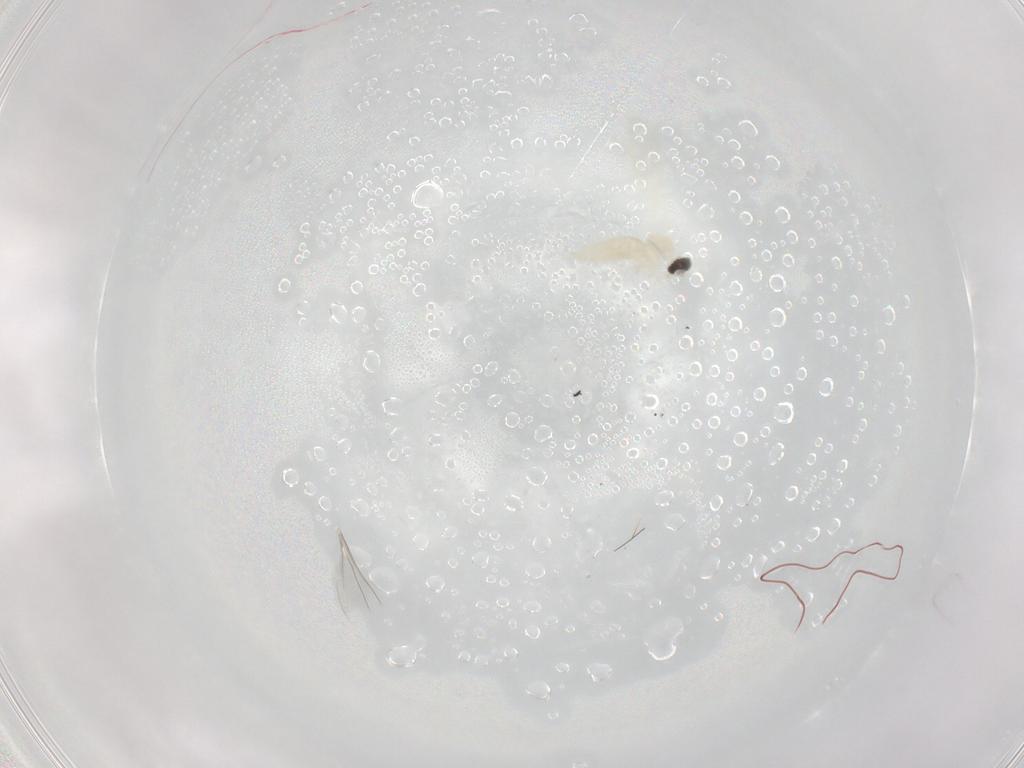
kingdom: Animalia
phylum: Arthropoda
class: Insecta
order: Diptera
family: Cecidomyiidae
